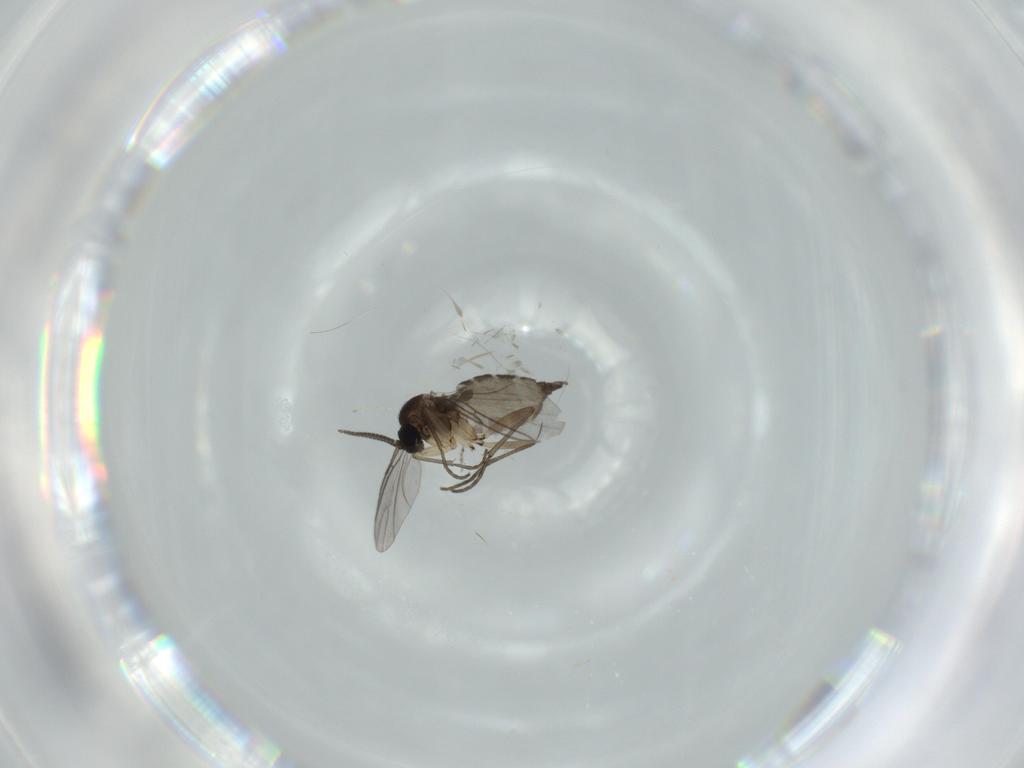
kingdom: Animalia
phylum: Arthropoda
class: Insecta
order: Diptera
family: Sciaridae
